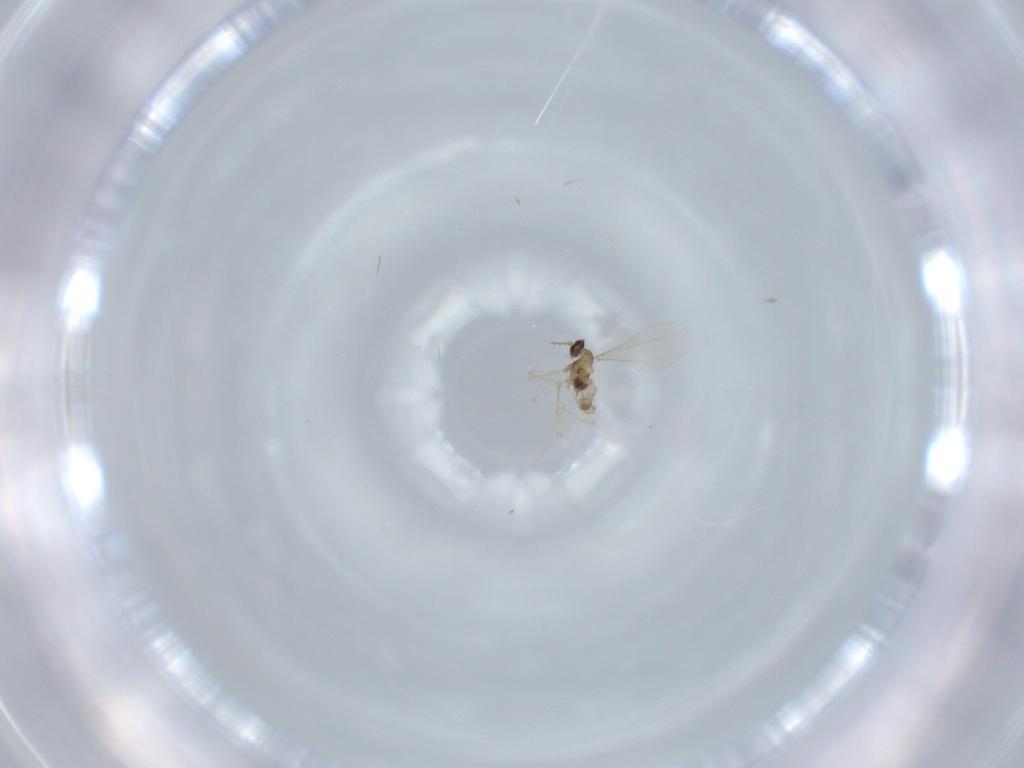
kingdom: Animalia
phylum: Arthropoda
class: Insecta
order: Diptera
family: Cecidomyiidae
